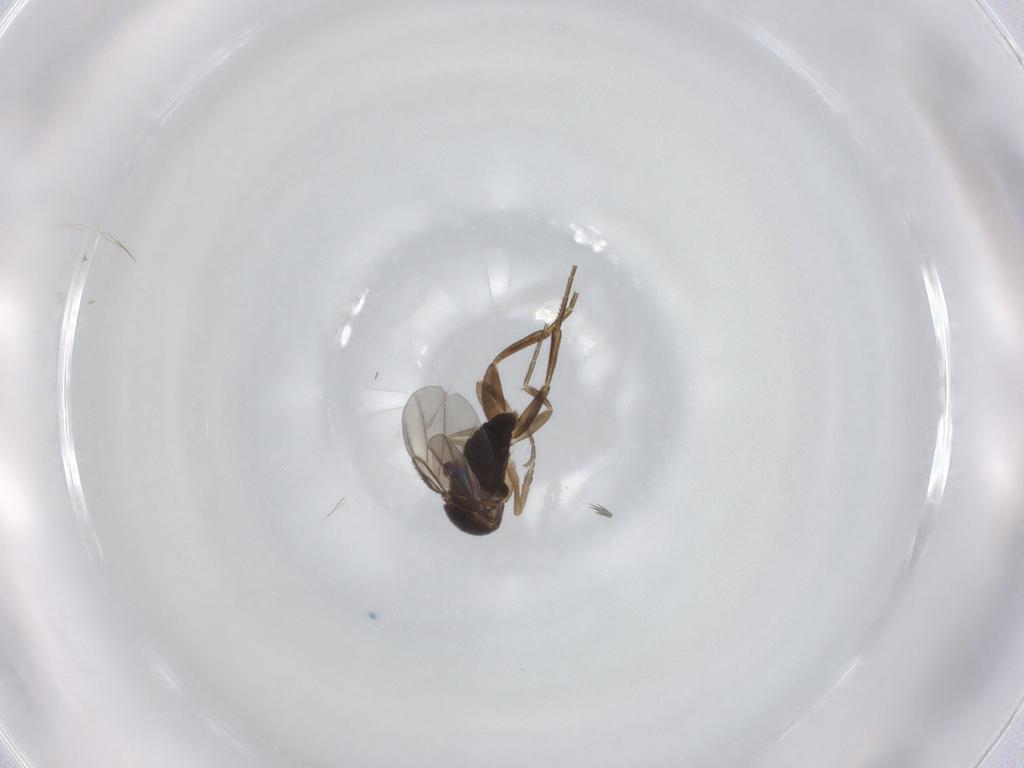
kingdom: Animalia
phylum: Arthropoda
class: Insecta
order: Diptera
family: Phoridae
